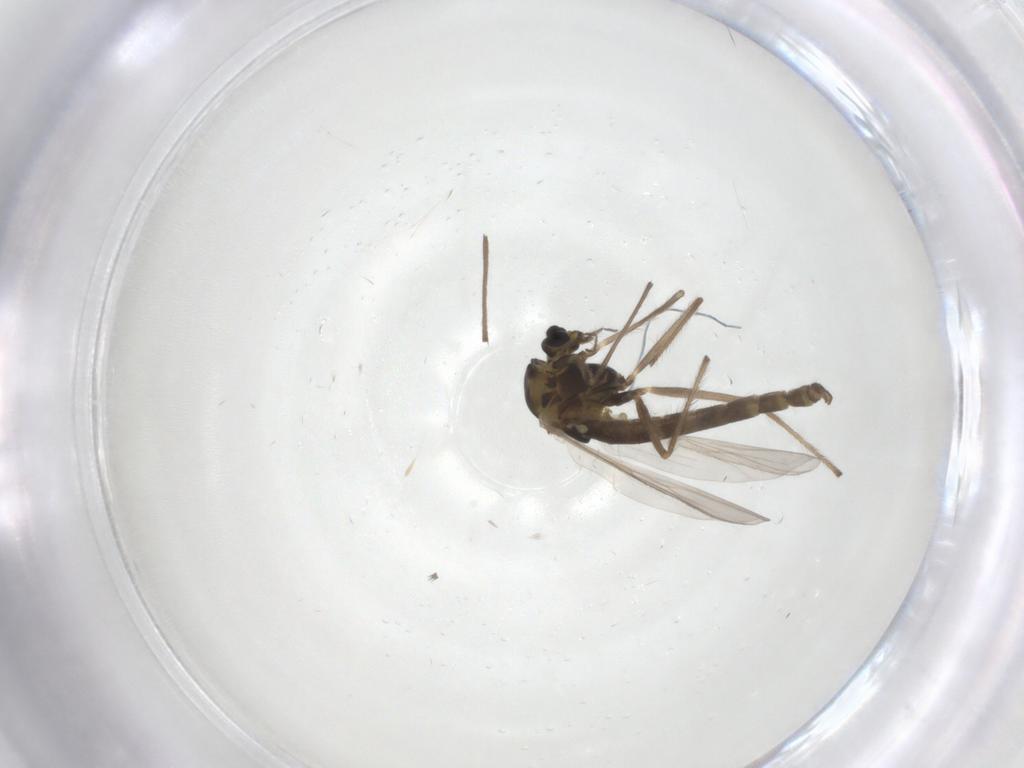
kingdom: Animalia
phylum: Arthropoda
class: Insecta
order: Diptera
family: Chironomidae
